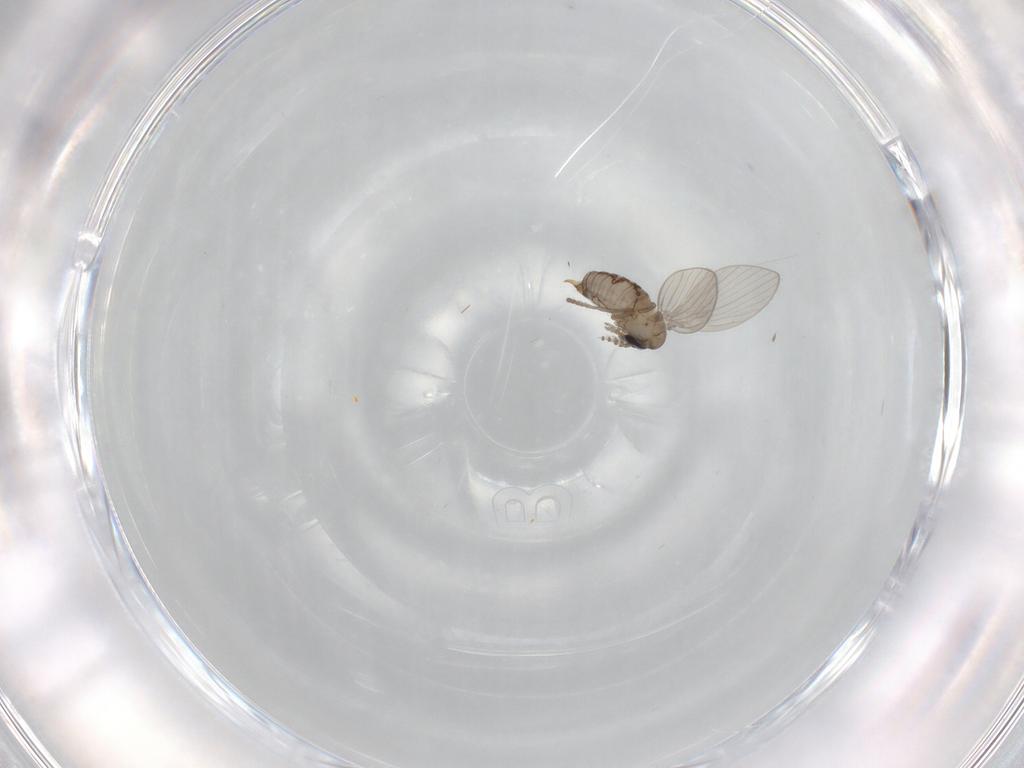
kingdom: Animalia
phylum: Arthropoda
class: Insecta
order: Diptera
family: Psychodidae
